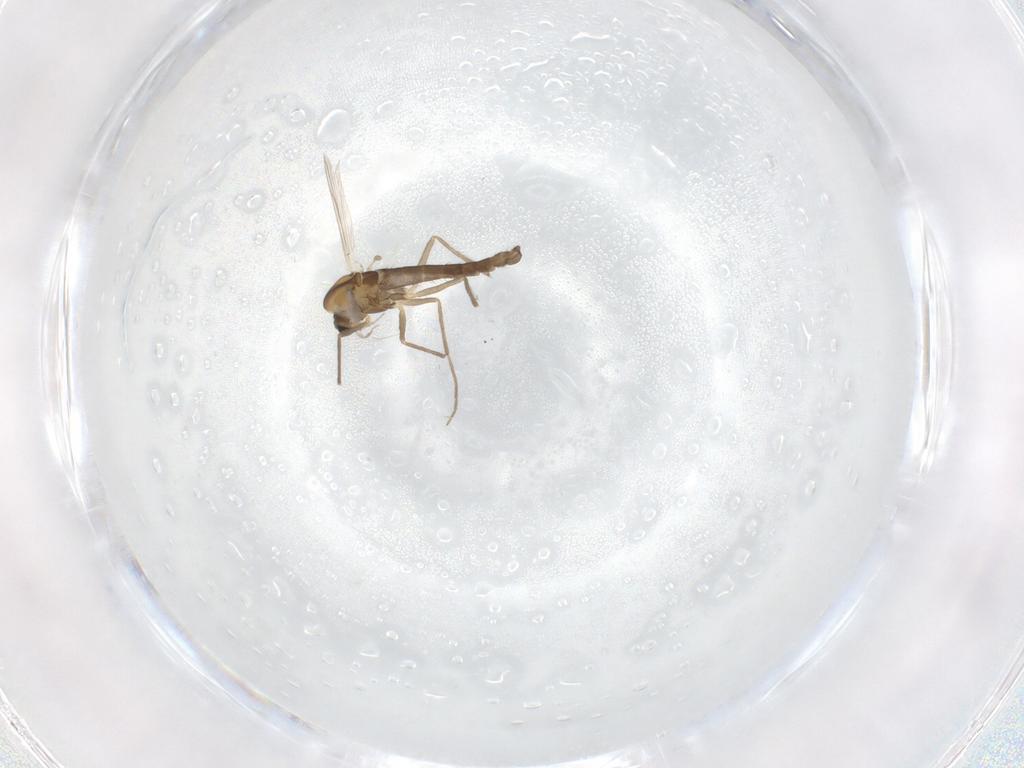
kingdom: Animalia
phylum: Arthropoda
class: Insecta
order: Diptera
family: Chironomidae
